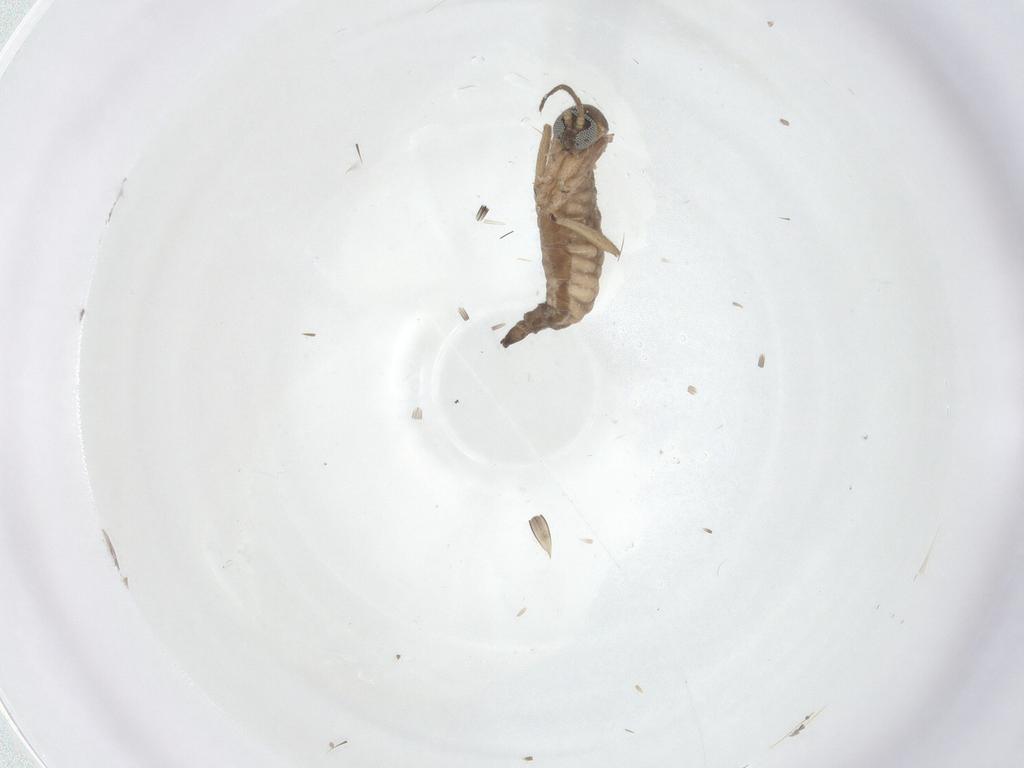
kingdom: Animalia
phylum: Arthropoda
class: Insecta
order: Diptera
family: Sciaridae
